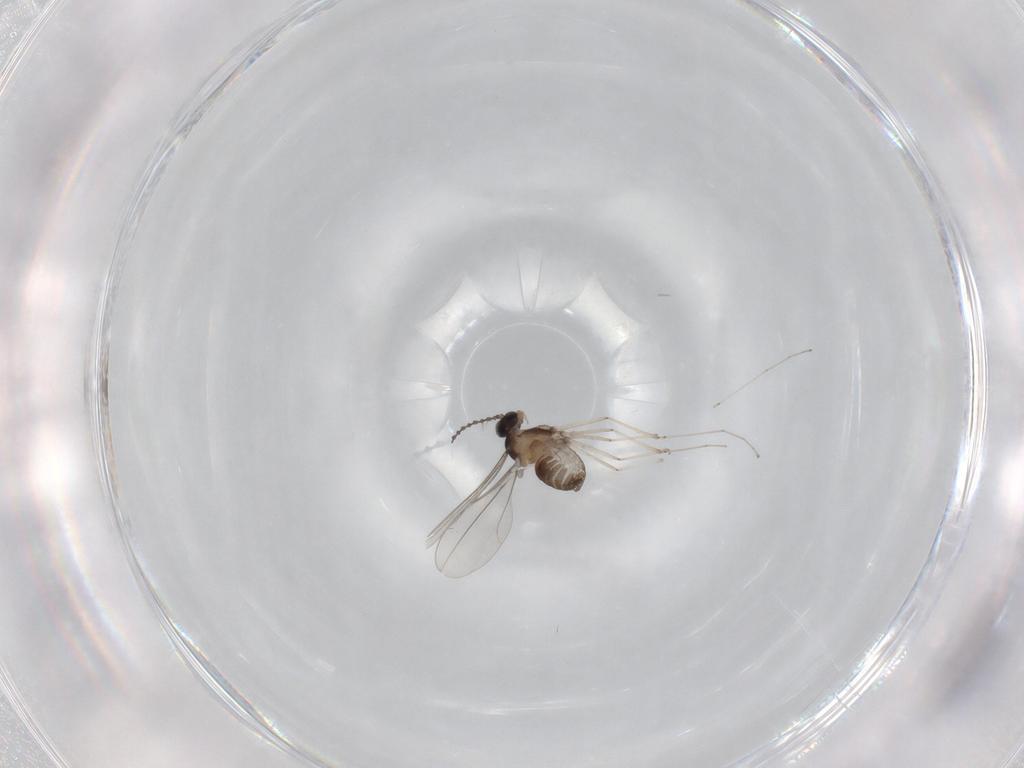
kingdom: Animalia
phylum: Arthropoda
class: Insecta
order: Diptera
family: Cecidomyiidae
